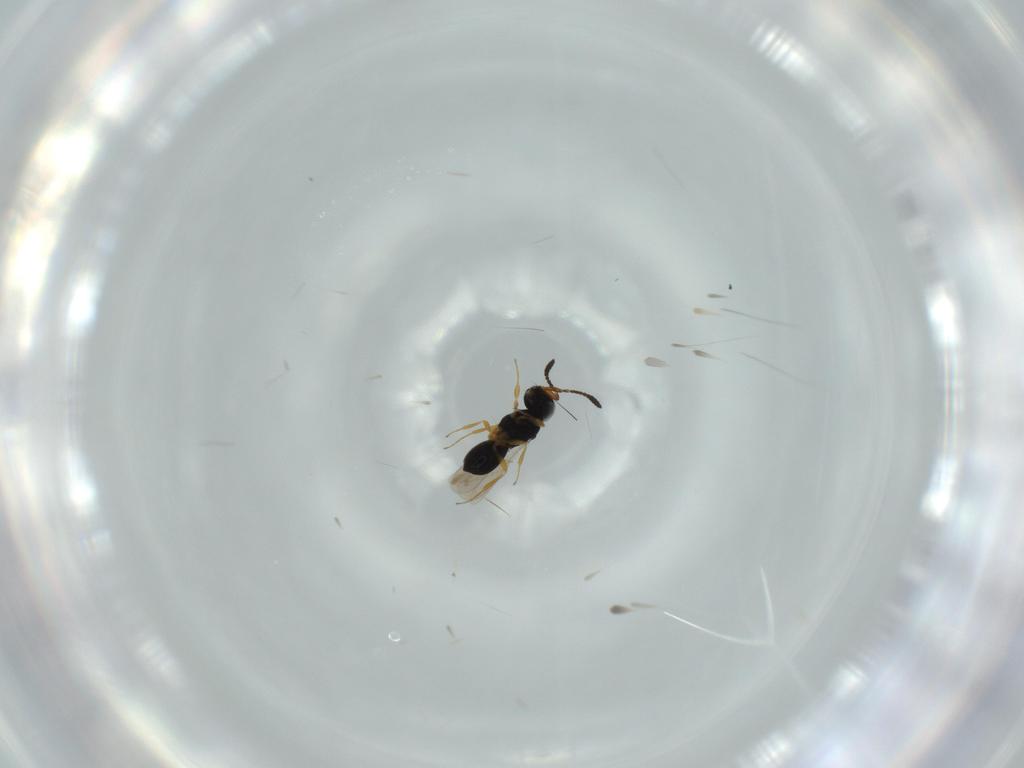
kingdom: Animalia
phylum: Arthropoda
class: Insecta
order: Hymenoptera
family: Scelionidae
